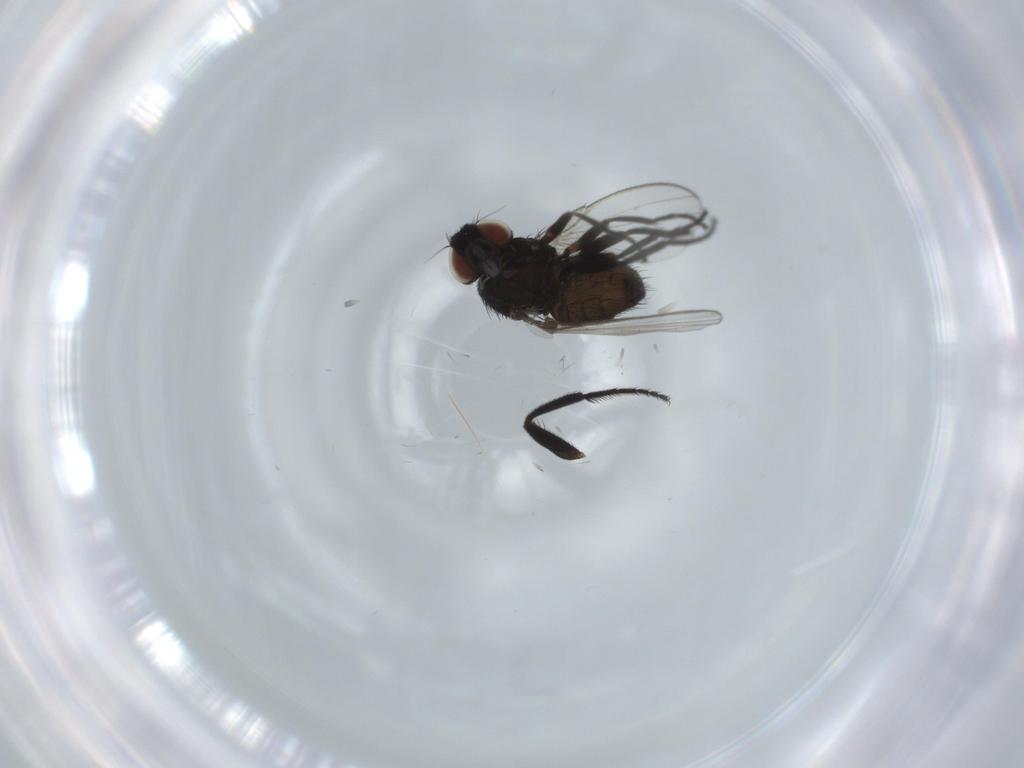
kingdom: Animalia
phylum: Arthropoda
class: Insecta
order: Diptera
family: Milichiidae
